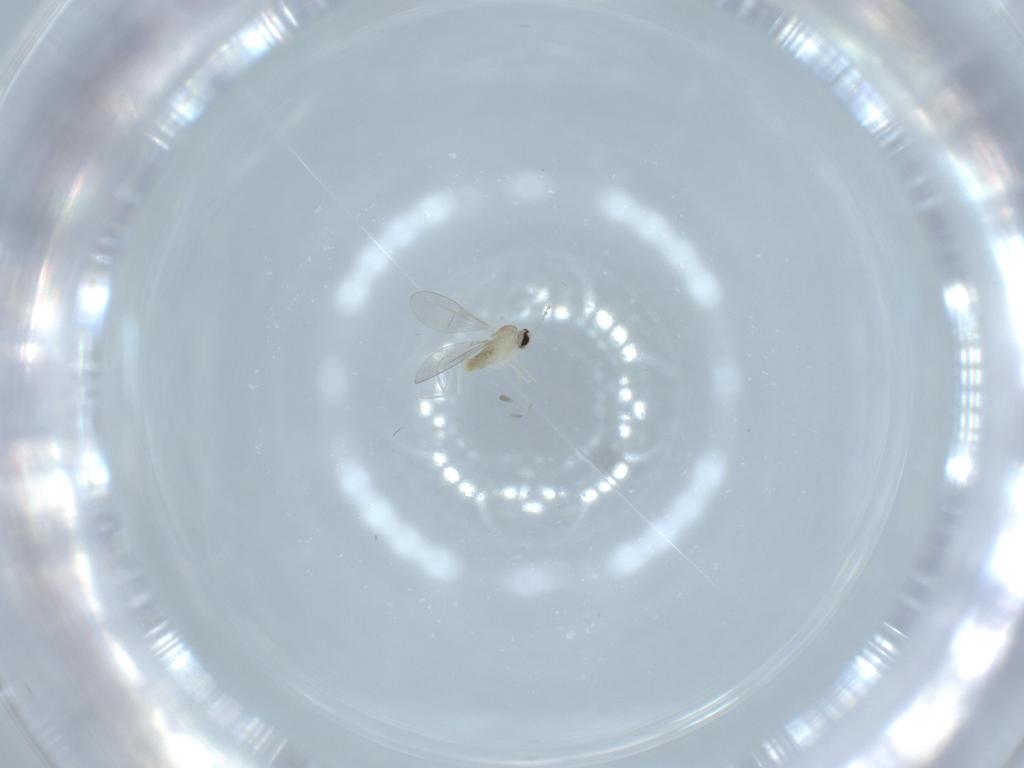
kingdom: Animalia
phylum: Arthropoda
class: Insecta
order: Diptera
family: Cecidomyiidae
